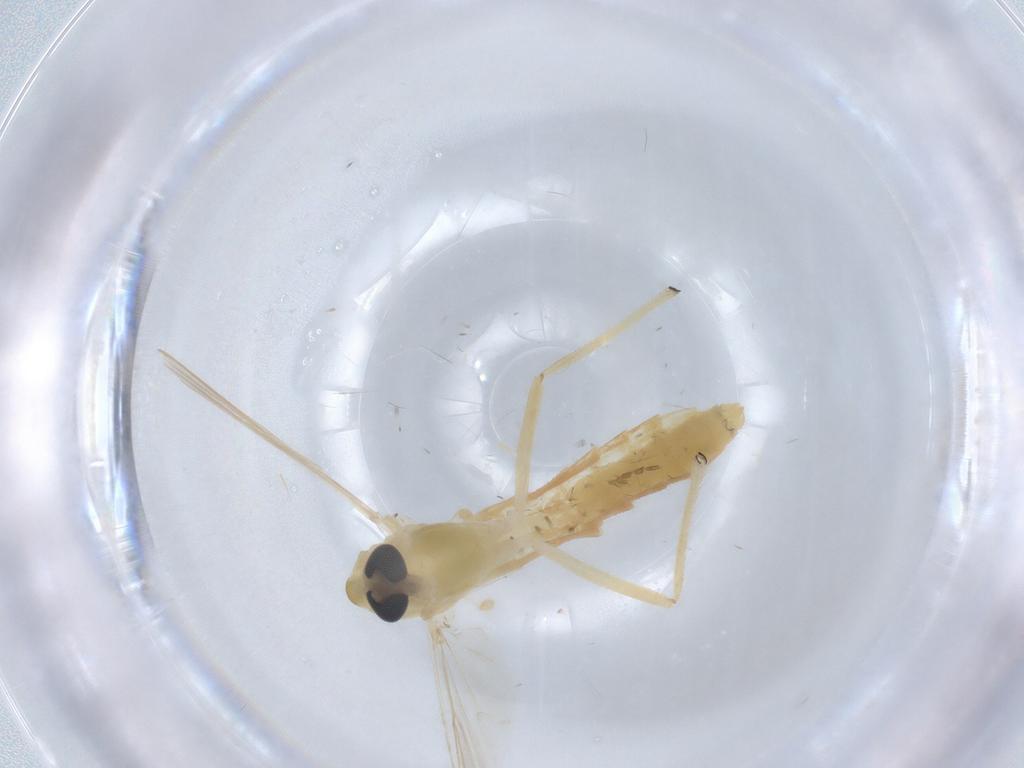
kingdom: Animalia
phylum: Arthropoda
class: Insecta
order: Diptera
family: Chironomidae
